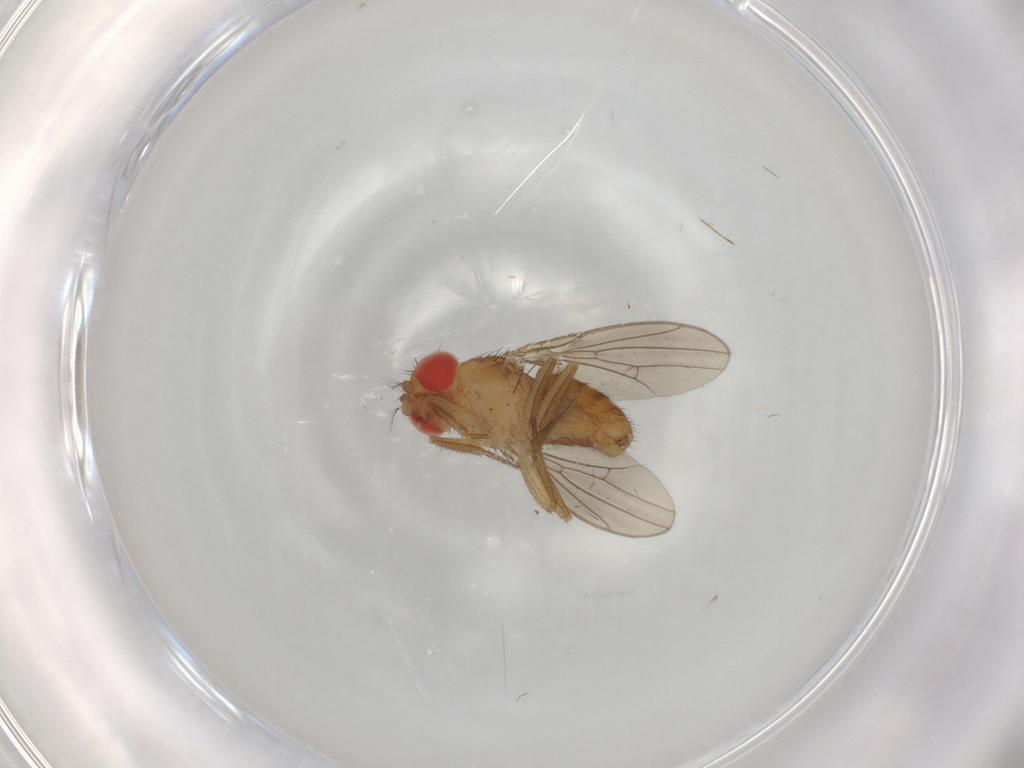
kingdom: Animalia
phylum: Arthropoda
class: Insecta
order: Diptera
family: Drosophilidae
